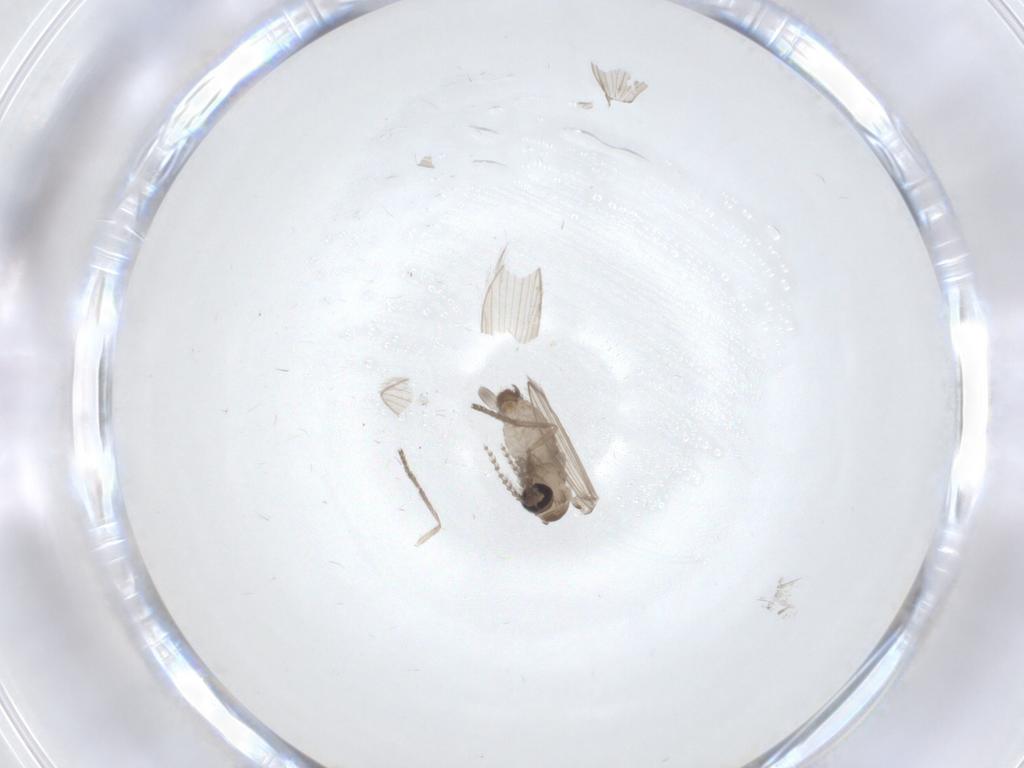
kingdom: Animalia
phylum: Arthropoda
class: Insecta
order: Diptera
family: Psychodidae
